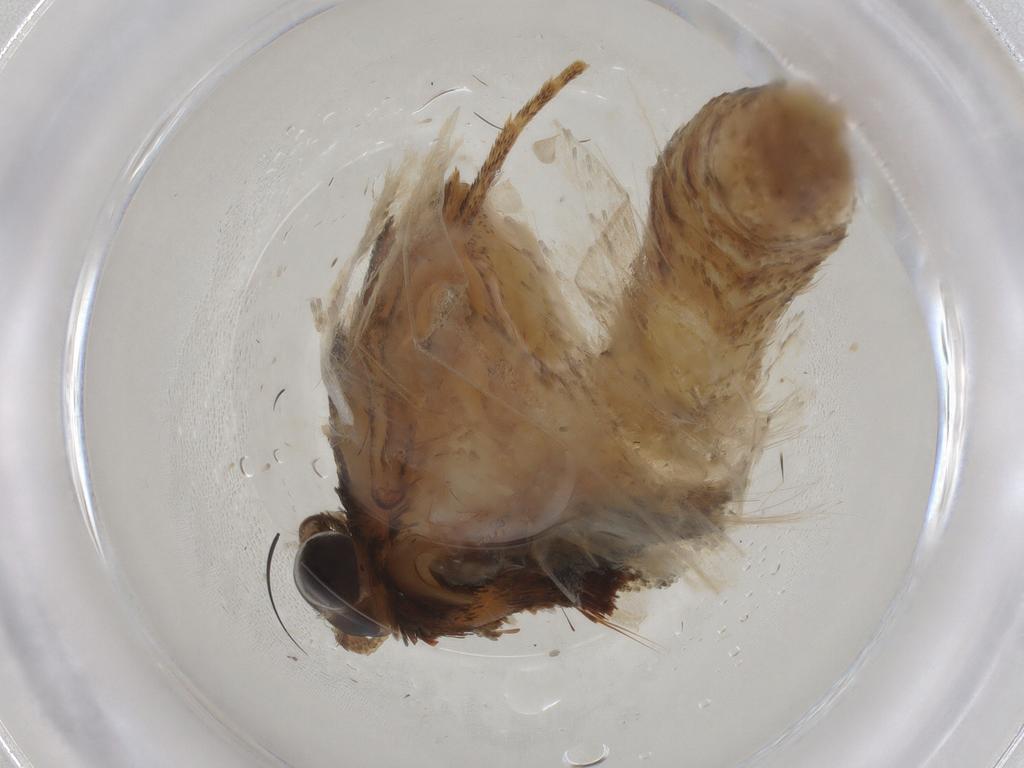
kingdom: Animalia
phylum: Arthropoda
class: Insecta
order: Lepidoptera
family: Tortricidae
